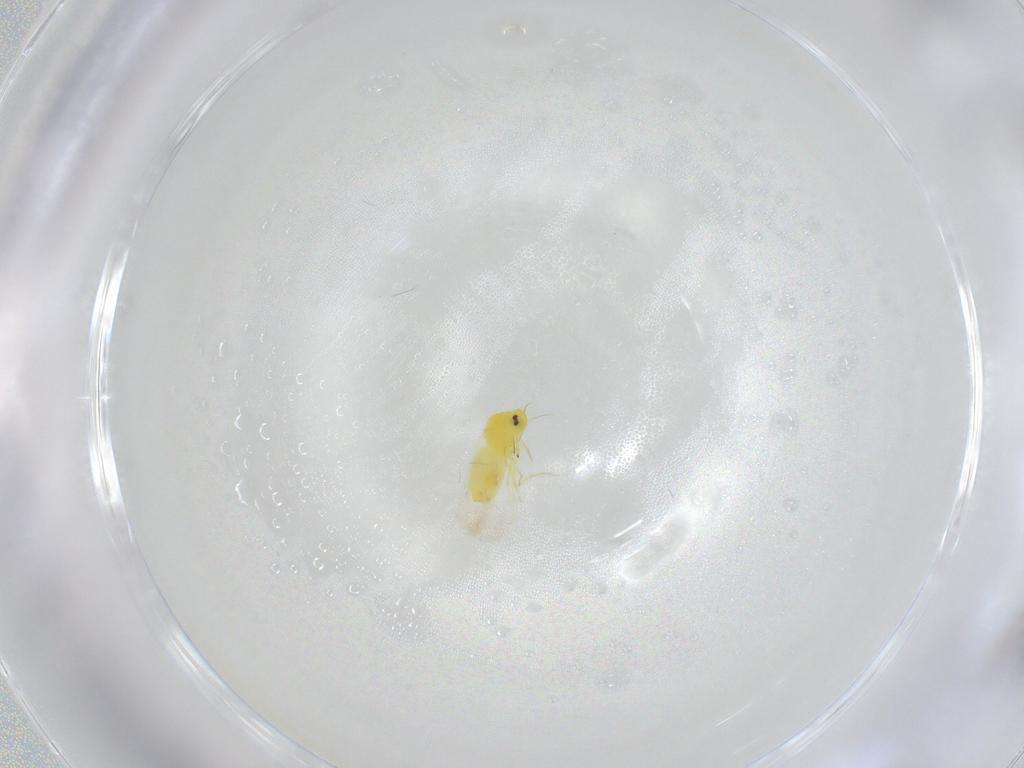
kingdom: Animalia
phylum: Arthropoda
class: Insecta
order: Hemiptera
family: Aleyrodidae
